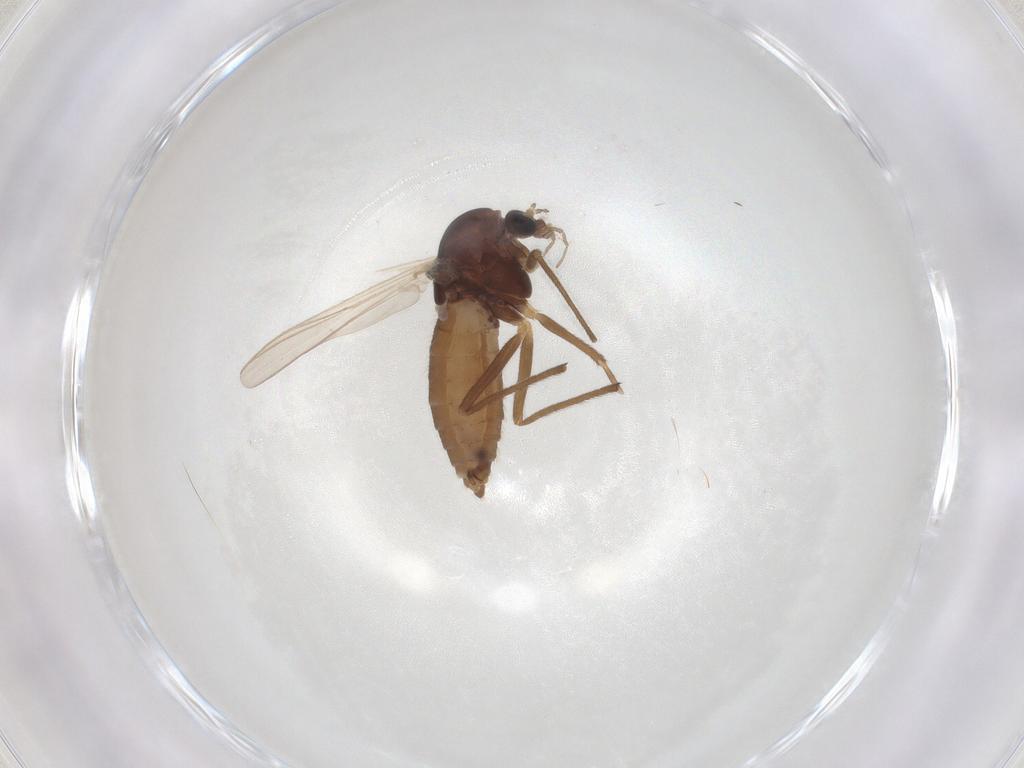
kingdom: Animalia
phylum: Arthropoda
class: Insecta
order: Diptera
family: Chironomidae
